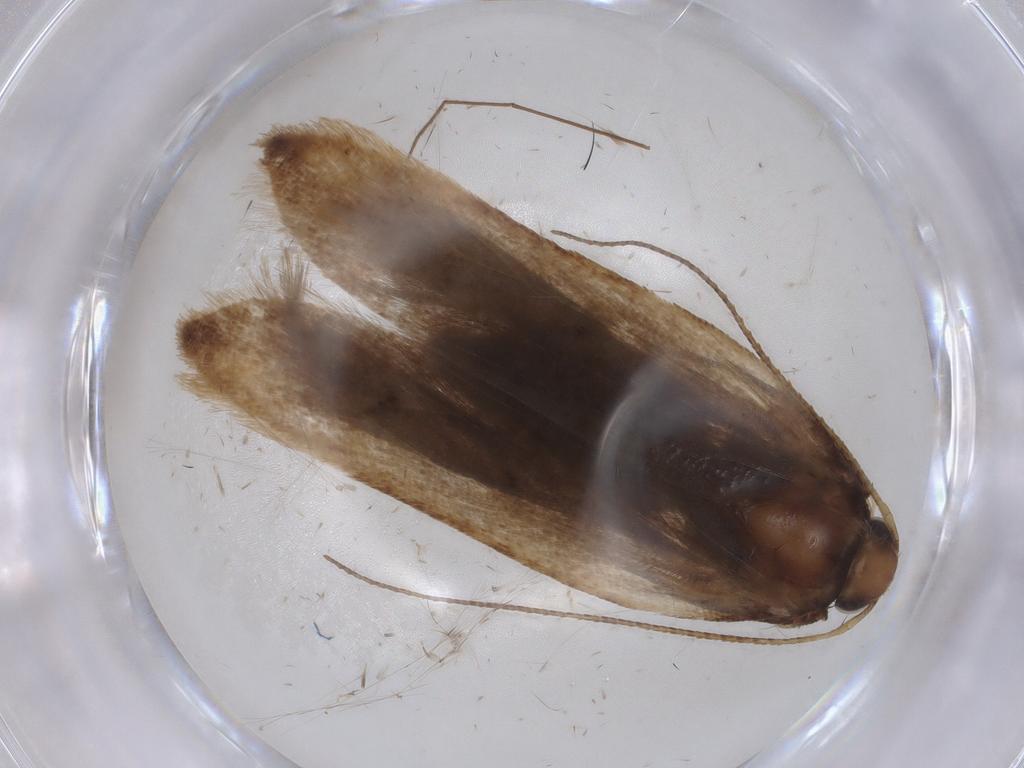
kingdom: Animalia
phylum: Arthropoda
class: Insecta
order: Lepidoptera
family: Gelechiidae
